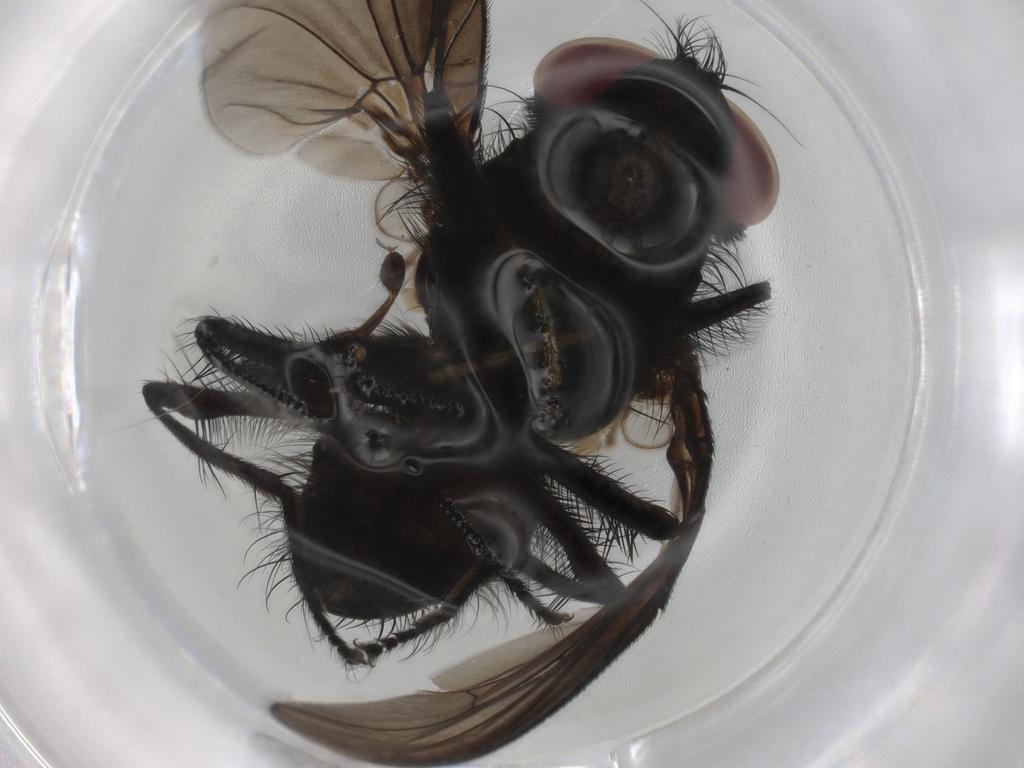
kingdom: Animalia
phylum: Arthropoda
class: Insecta
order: Diptera
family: Fannia
